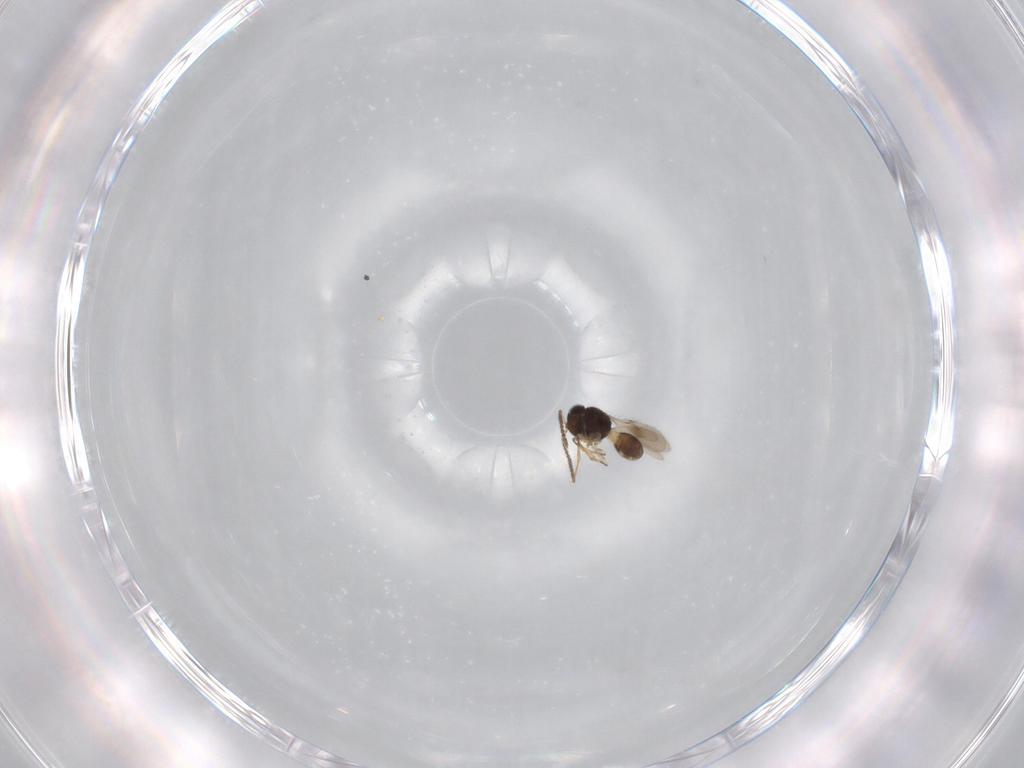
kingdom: Animalia
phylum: Arthropoda
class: Insecta
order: Hymenoptera
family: Scelionidae
